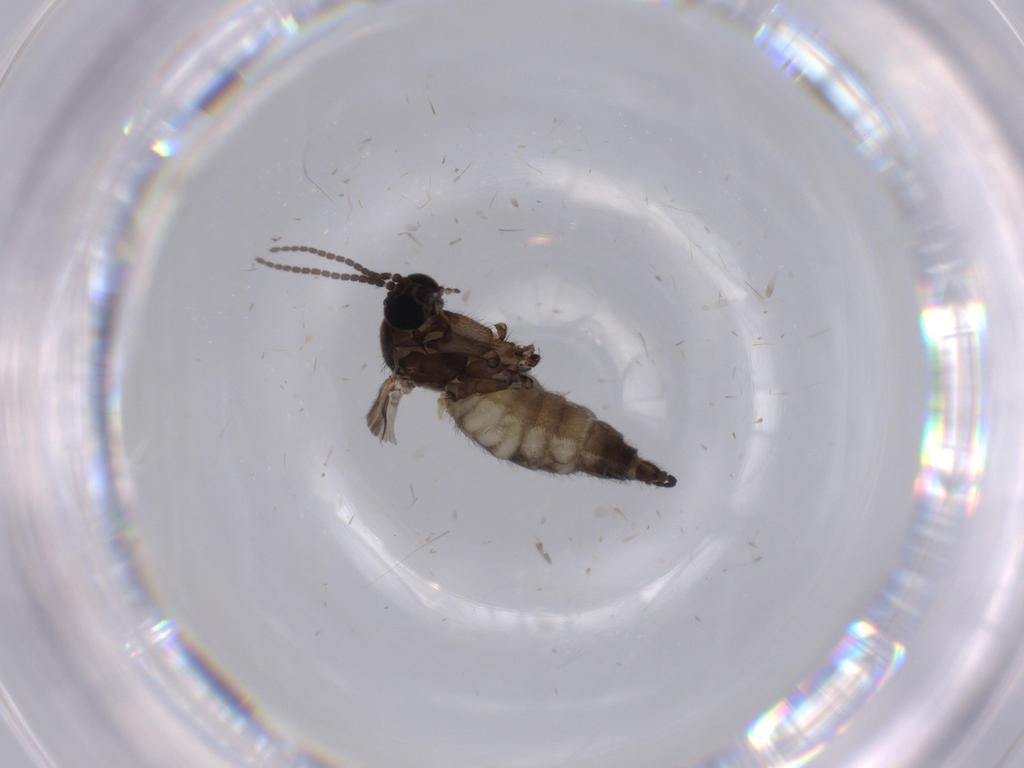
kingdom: Animalia
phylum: Arthropoda
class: Insecta
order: Diptera
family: Sciaridae
